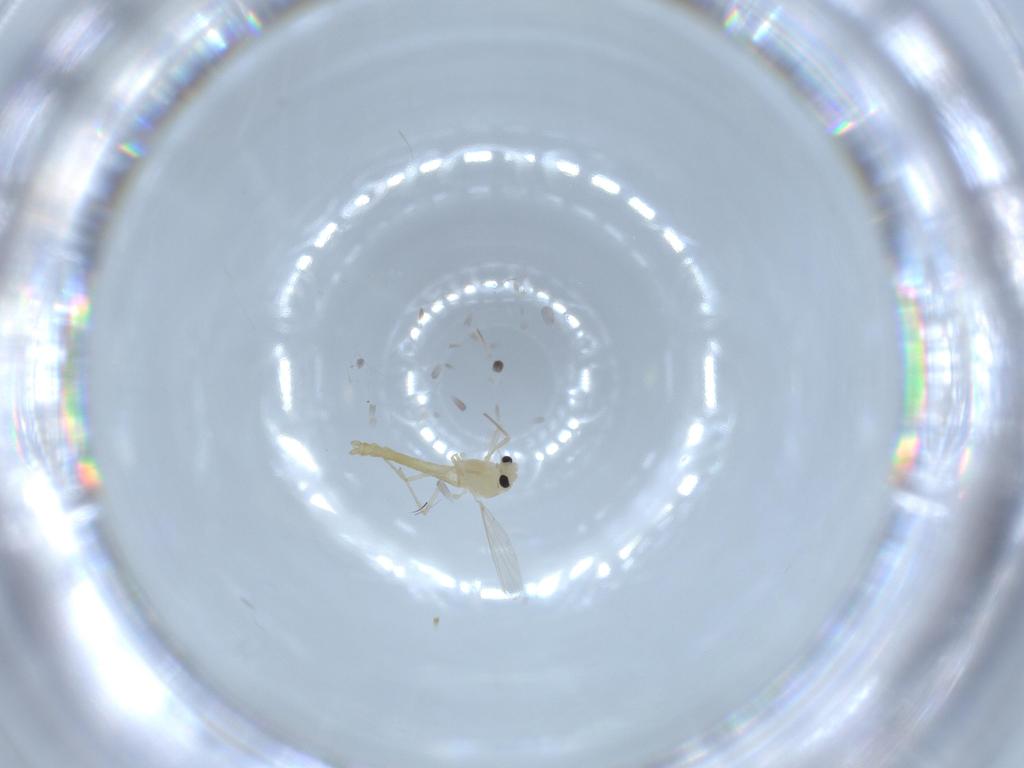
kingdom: Animalia
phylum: Arthropoda
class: Insecta
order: Diptera
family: Chironomidae
